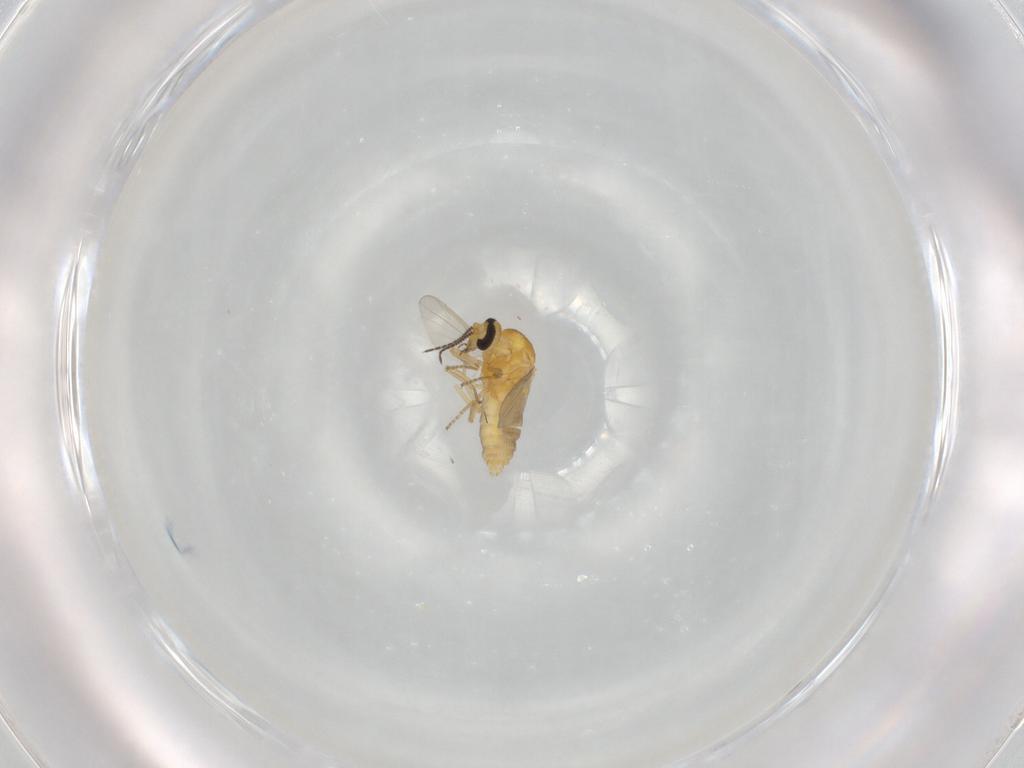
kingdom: Animalia
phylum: Arthropoda
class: Insecta
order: Diptera
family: Ceratopogonidae
